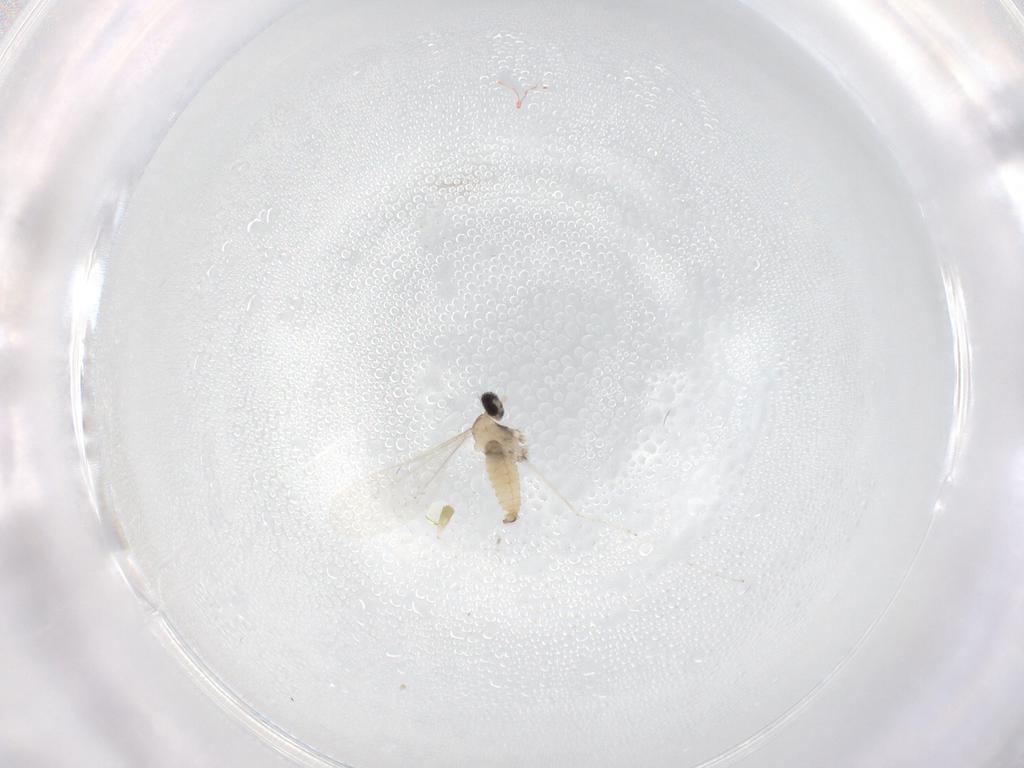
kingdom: Animalia
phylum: Arthropoda
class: Insecta
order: Diptera
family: Cecidomyiidae
